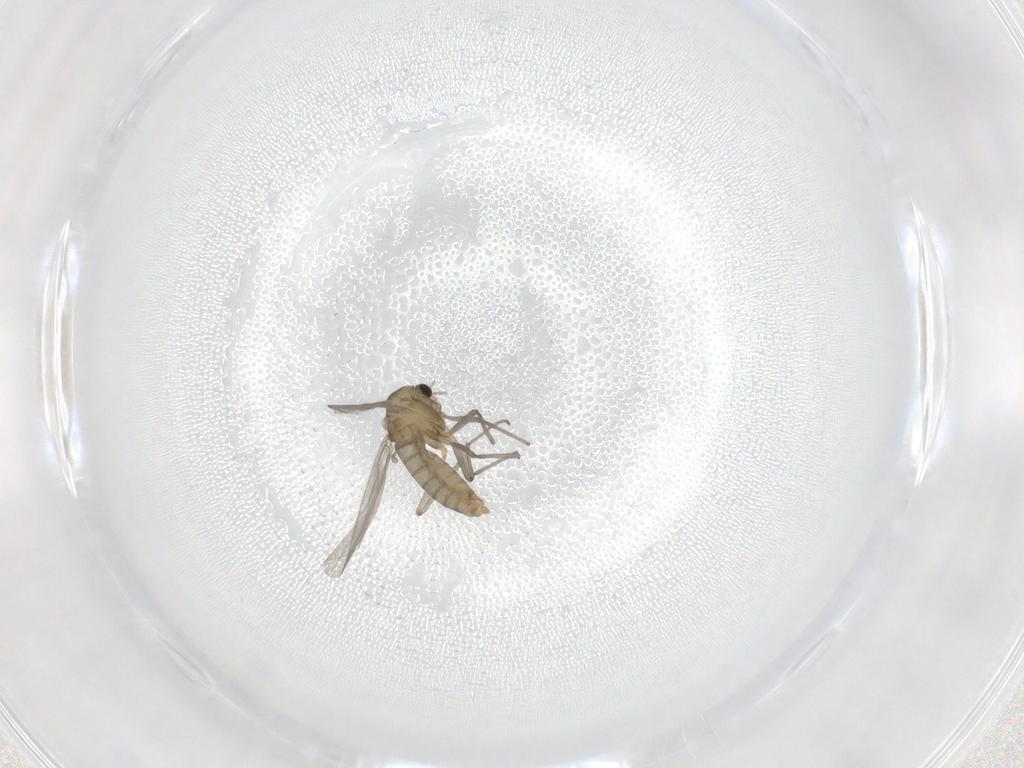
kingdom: Animalia
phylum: Arthropoda
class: Insecta
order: Diptera
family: Chironomidae
